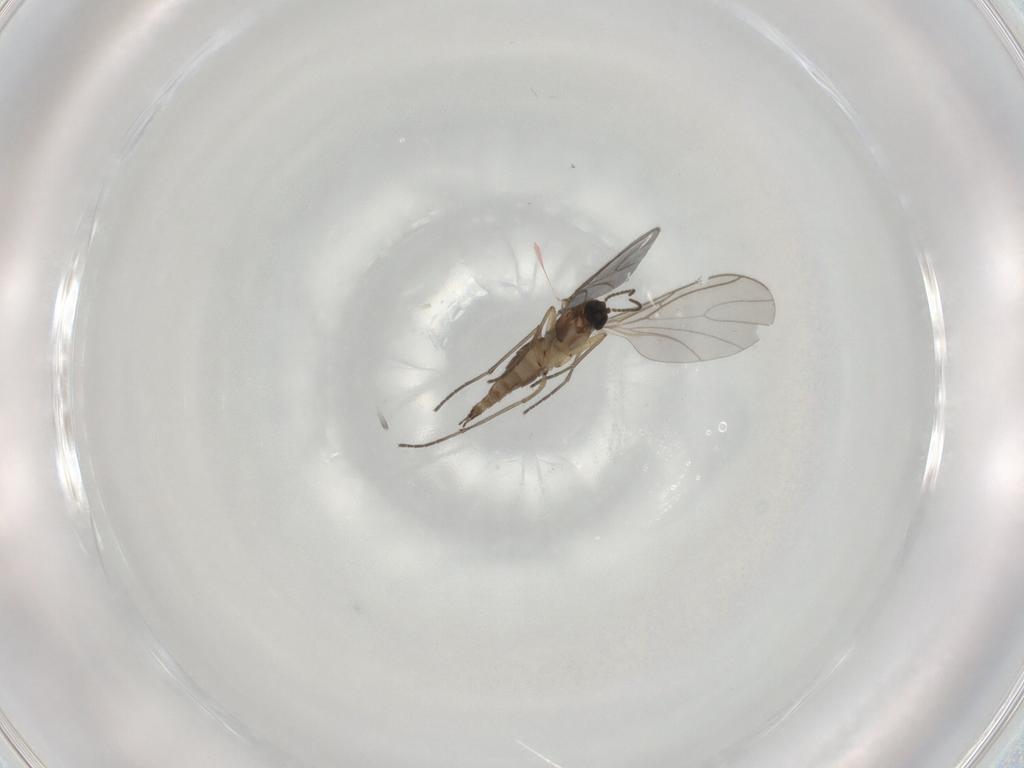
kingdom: Animalia
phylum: Arthropoda
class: Insecta
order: Diptera
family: Sciaridae
